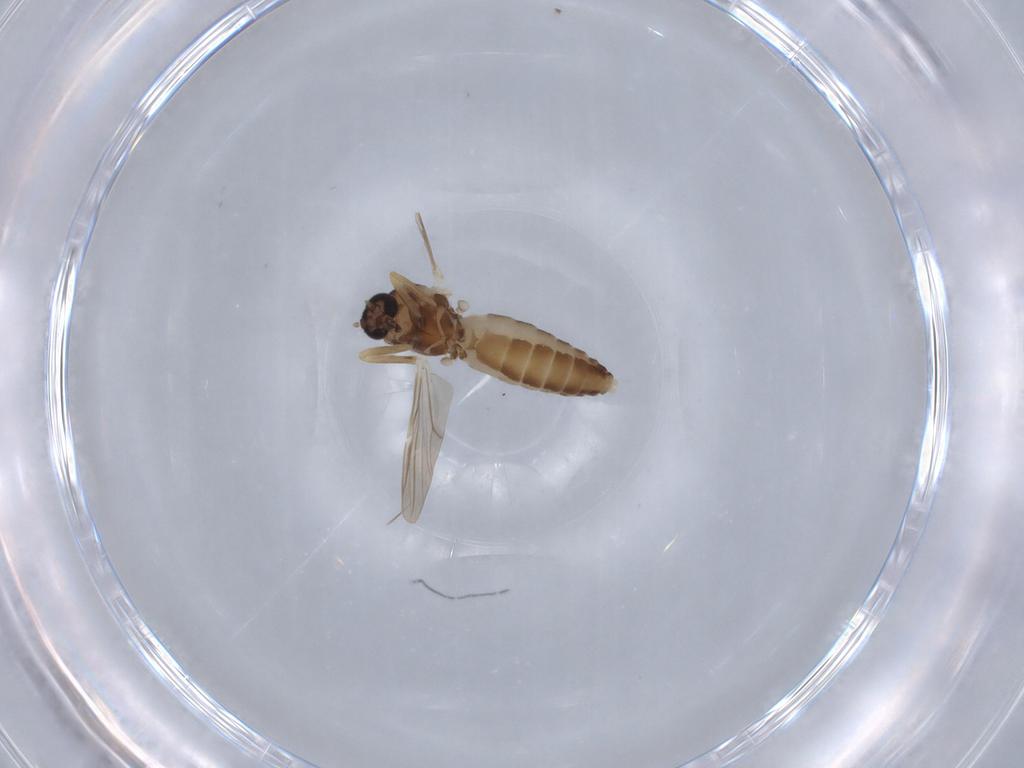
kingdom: Animalia
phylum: Arthropoda
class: Insecta
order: Diptera
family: Ceratopogonidae
